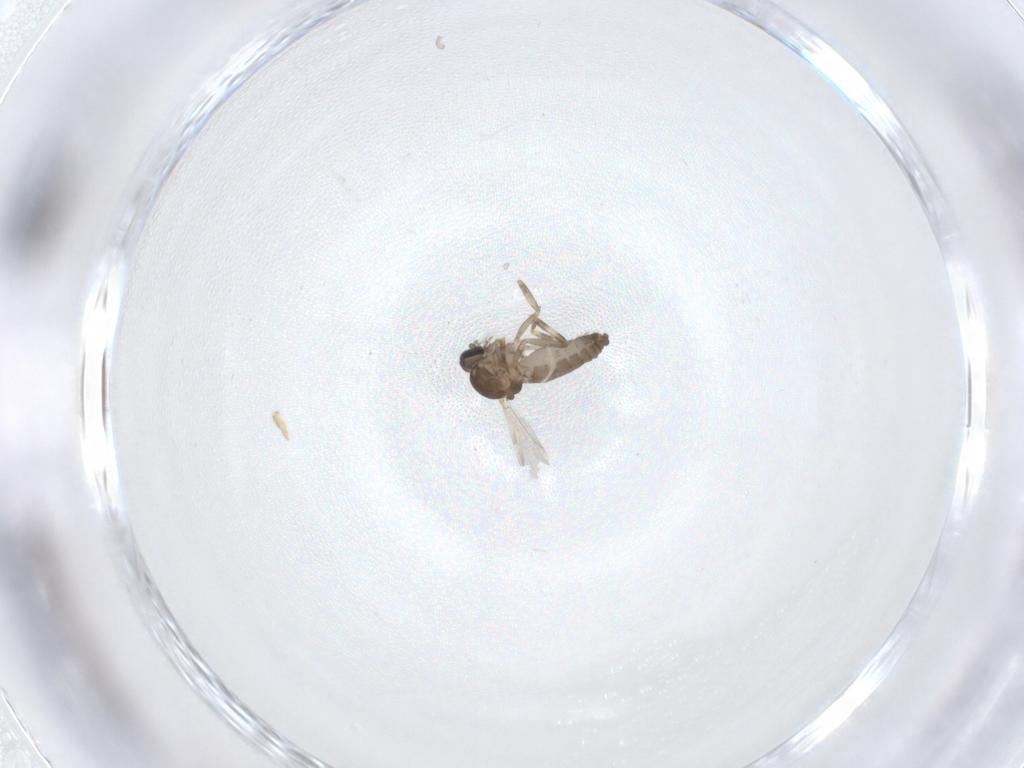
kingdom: Animalia
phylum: Arthropoda
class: Insecta
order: Diptera
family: Ceratopogonidae
